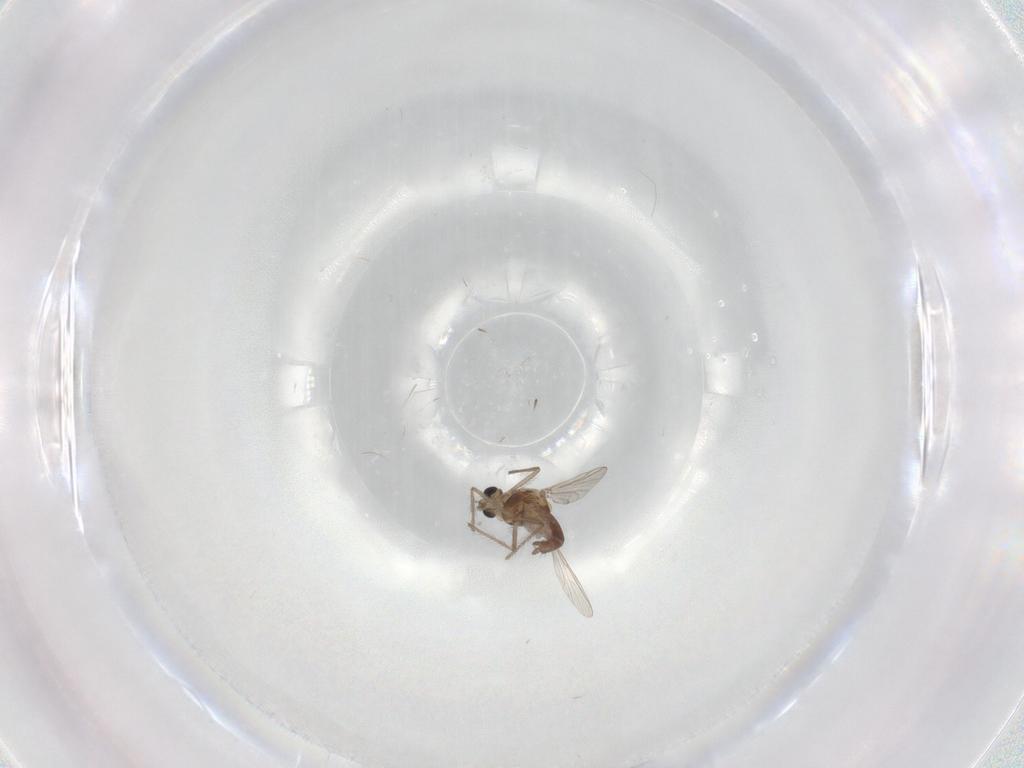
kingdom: Animalia
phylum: Arthropoda
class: Insecta
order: Diptera
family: Chironomidae
